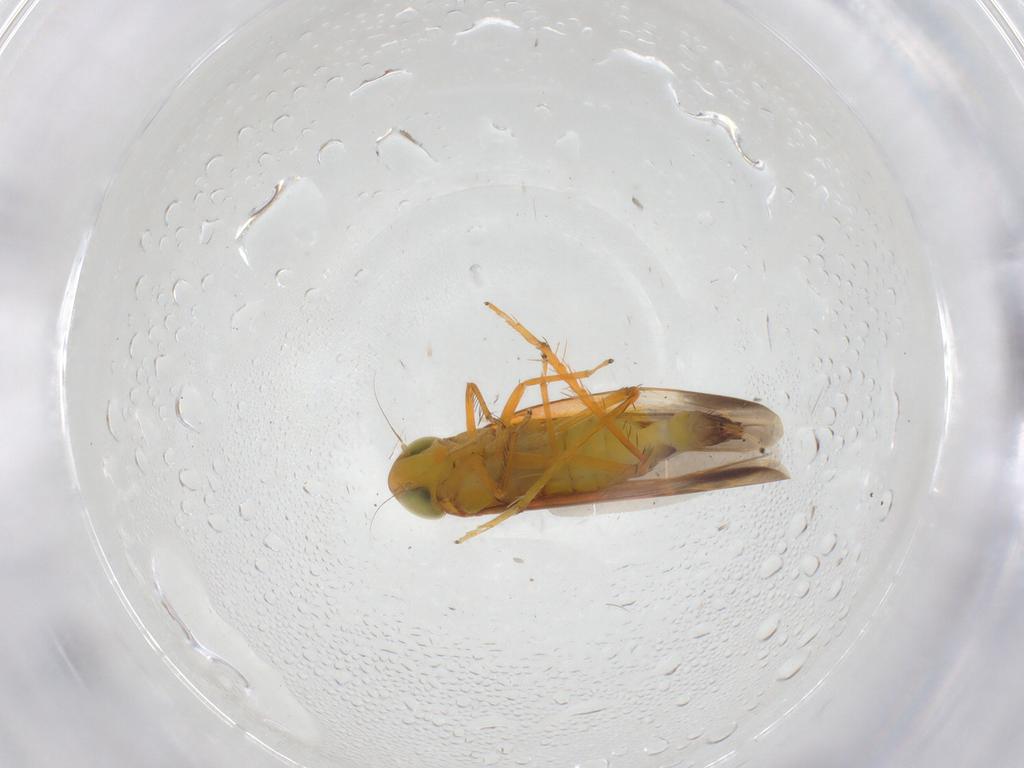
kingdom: Animalia
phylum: Arthropoda
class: Insecta
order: Hemiptera
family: Cicadellidae
